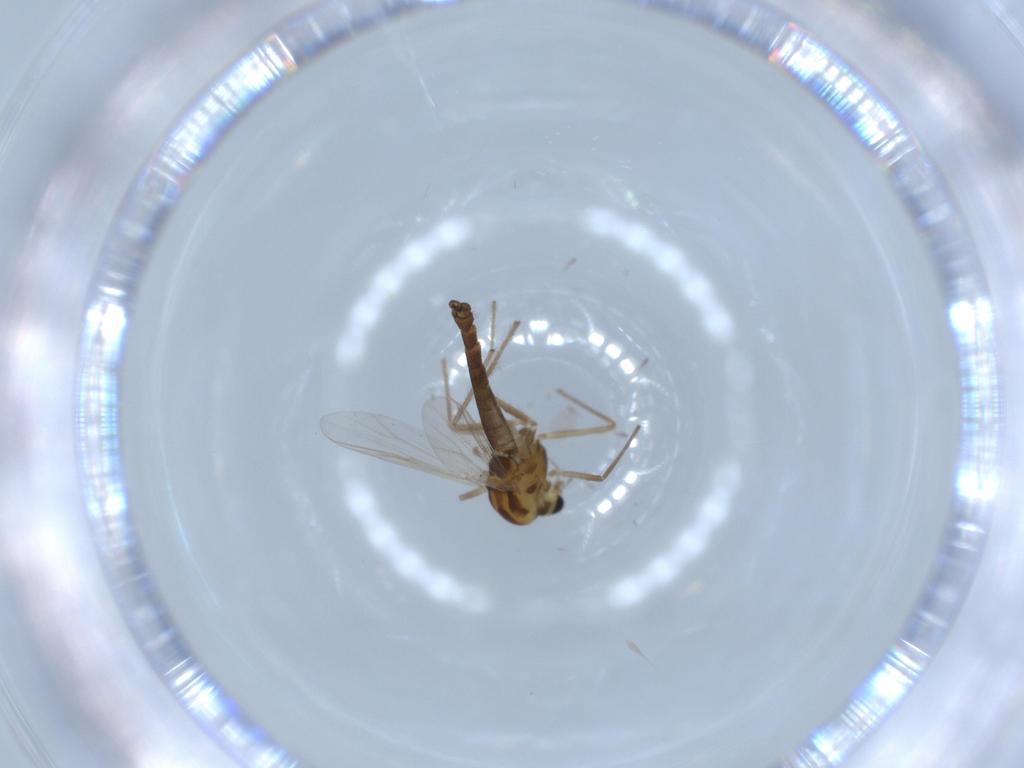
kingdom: Animalia
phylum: Arthropoda
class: Insecta
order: Diptera
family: Chironomidae
